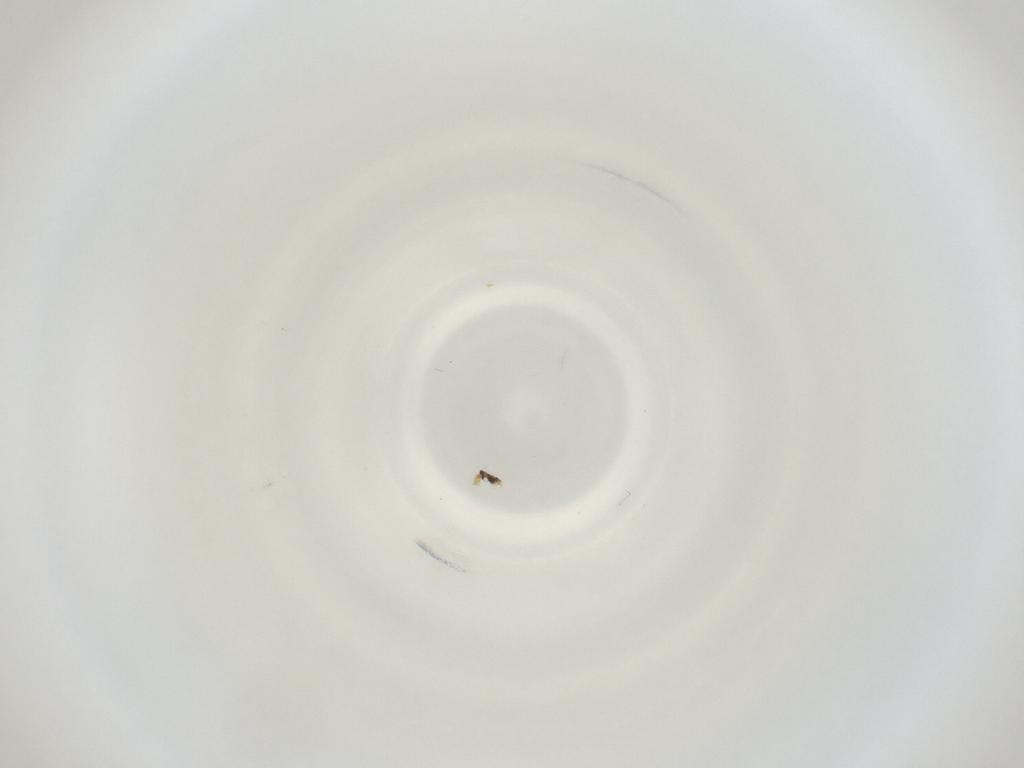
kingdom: Animalia
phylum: Arthropoda
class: Insecta
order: Diptera
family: Cecidomyiidae
